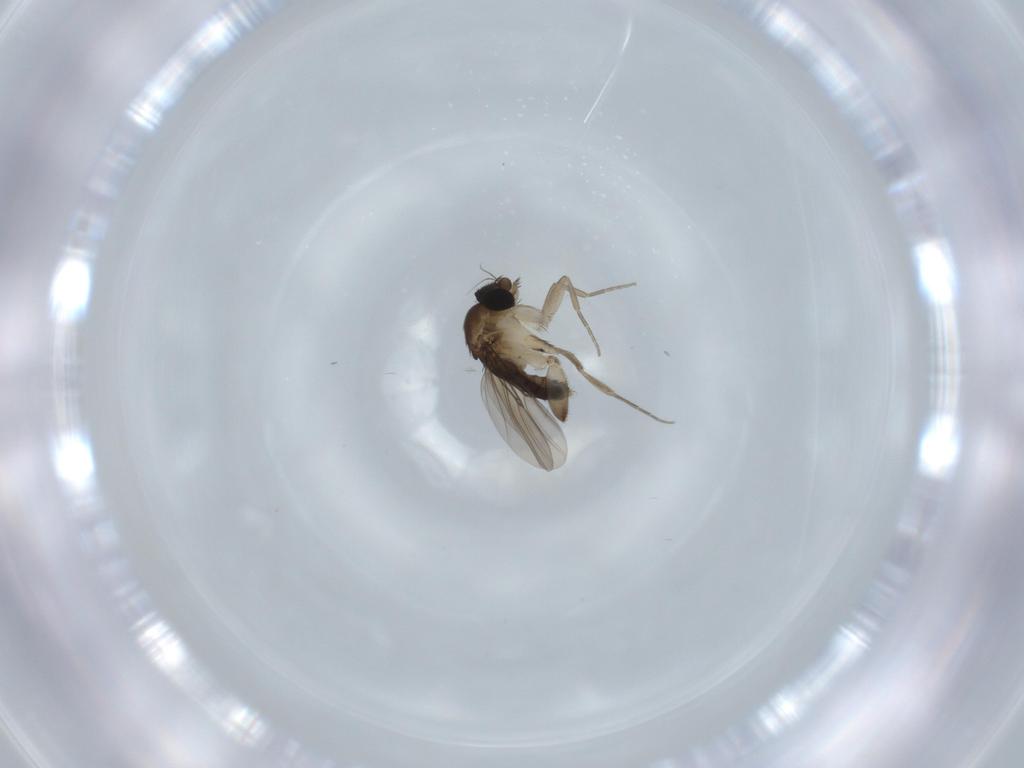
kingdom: Animalia
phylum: Arthropoda
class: Insecta
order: Diptera
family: Phoridae
